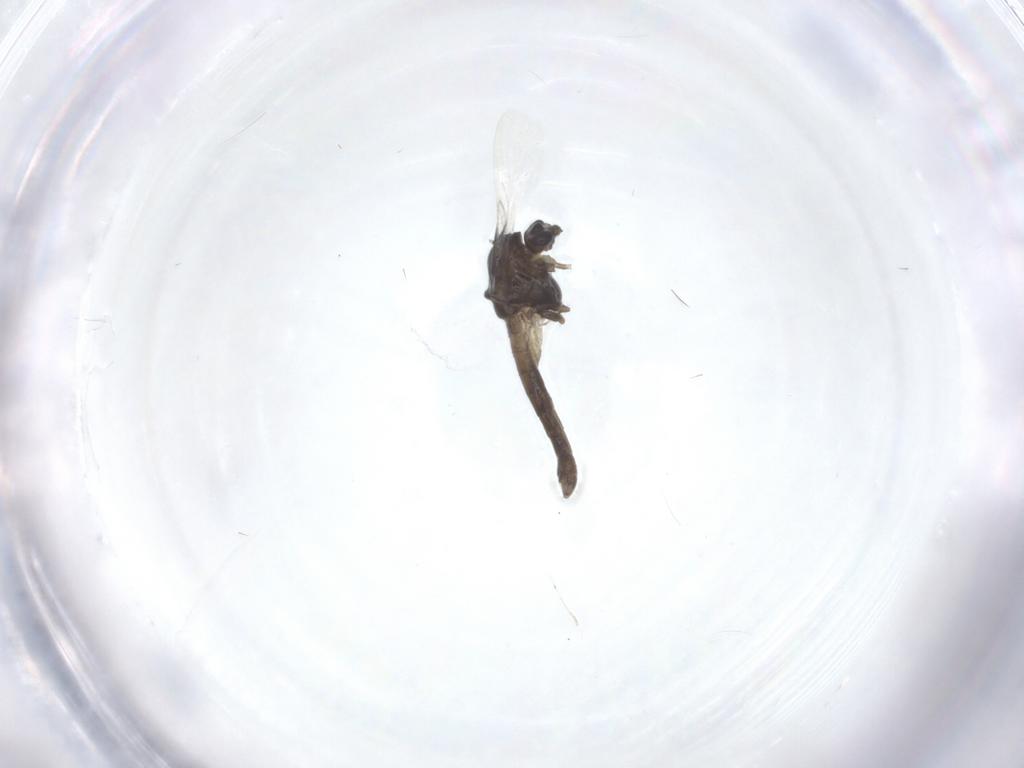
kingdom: Animalia
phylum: Arthropoda
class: Insecta
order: Diptera
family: Chironomidae
